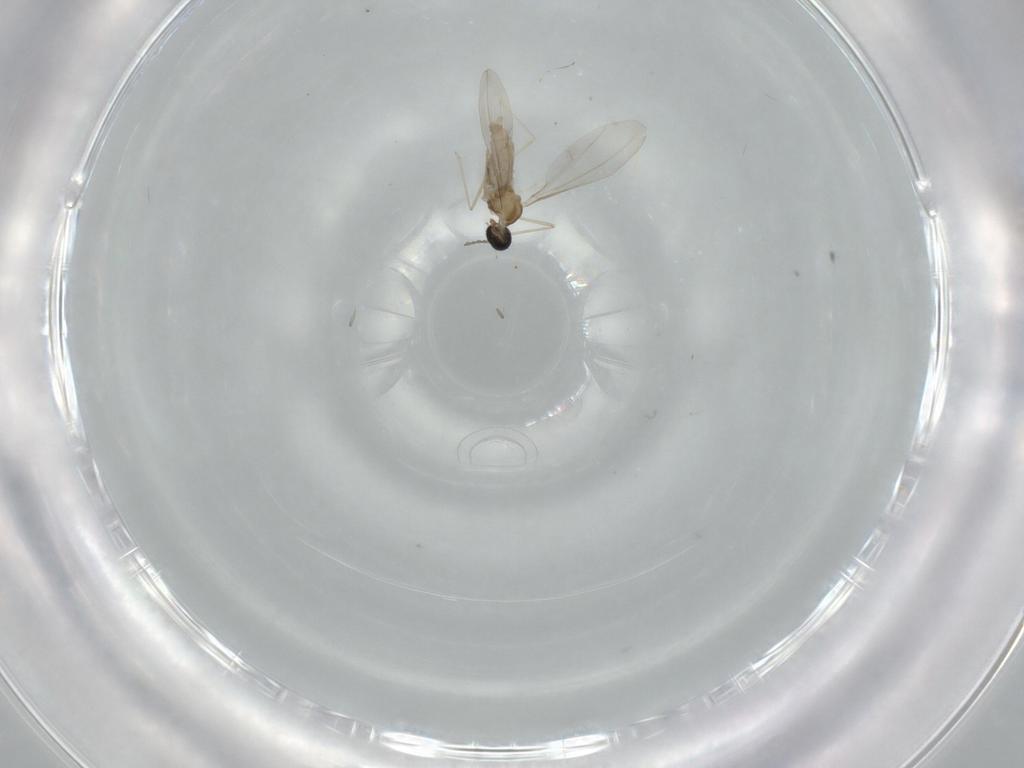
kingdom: Animalia
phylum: Arthropoda
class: Insecta
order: Diptera
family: Cecidomyiidae
